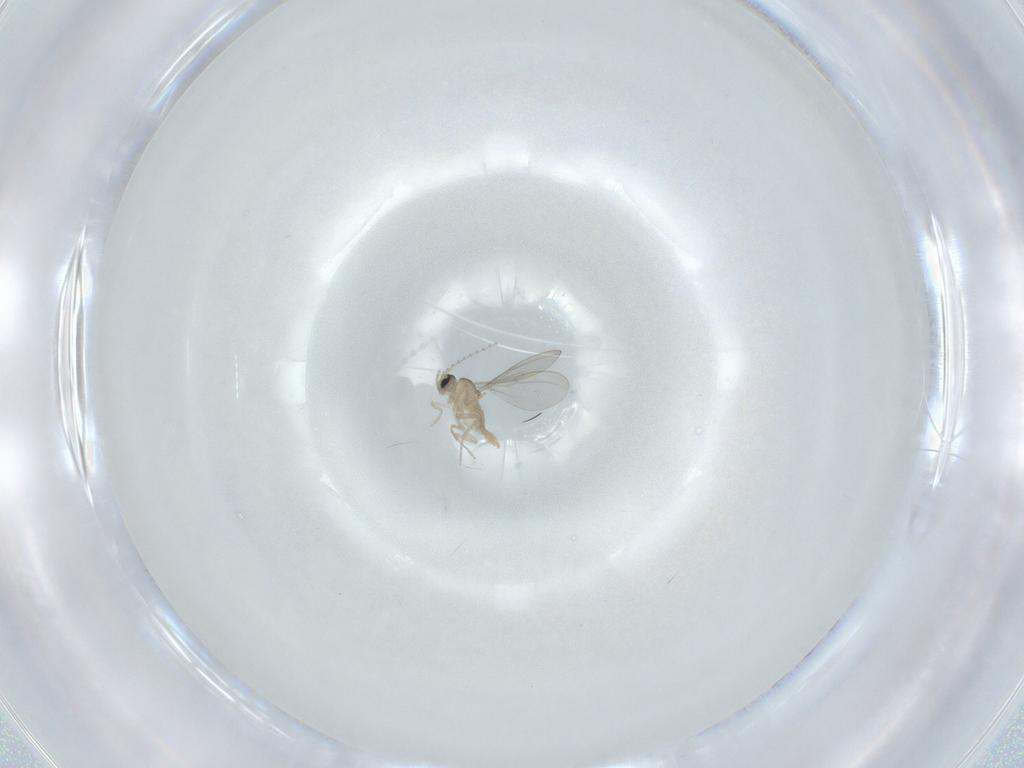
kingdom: Animalia
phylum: Arthropoda
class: Insecta
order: Diptera
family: Cecidomyiidae
